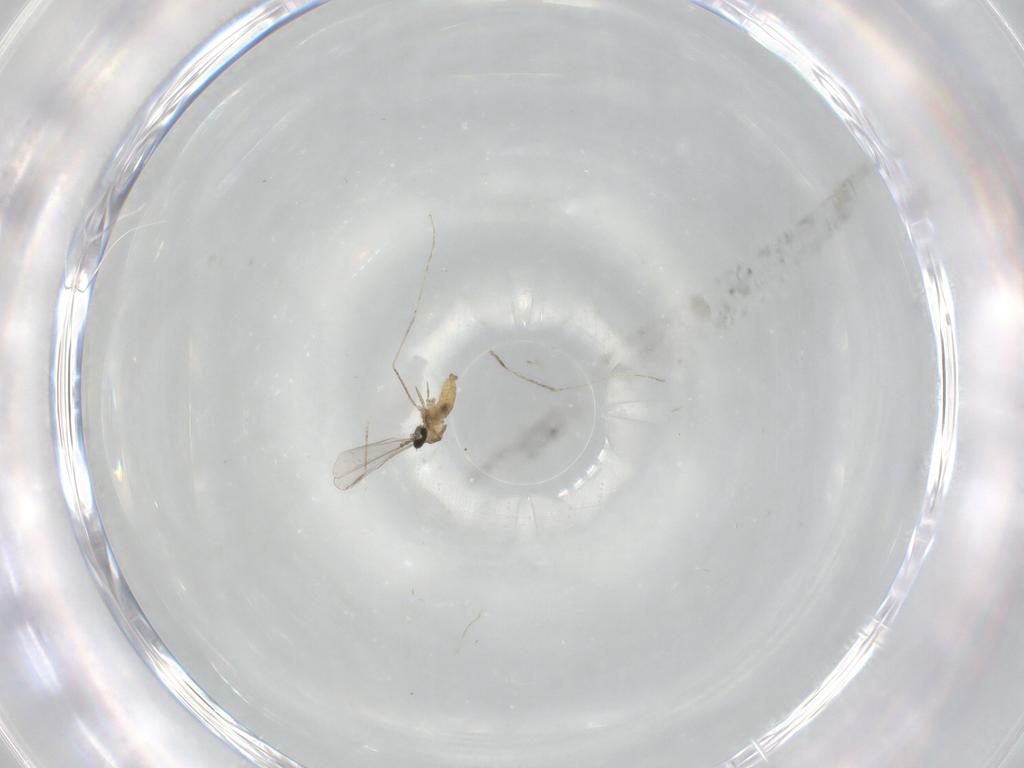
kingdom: Animalia
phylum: Arthropoda
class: Insecta
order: Diptera
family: Cecidomyiidae
